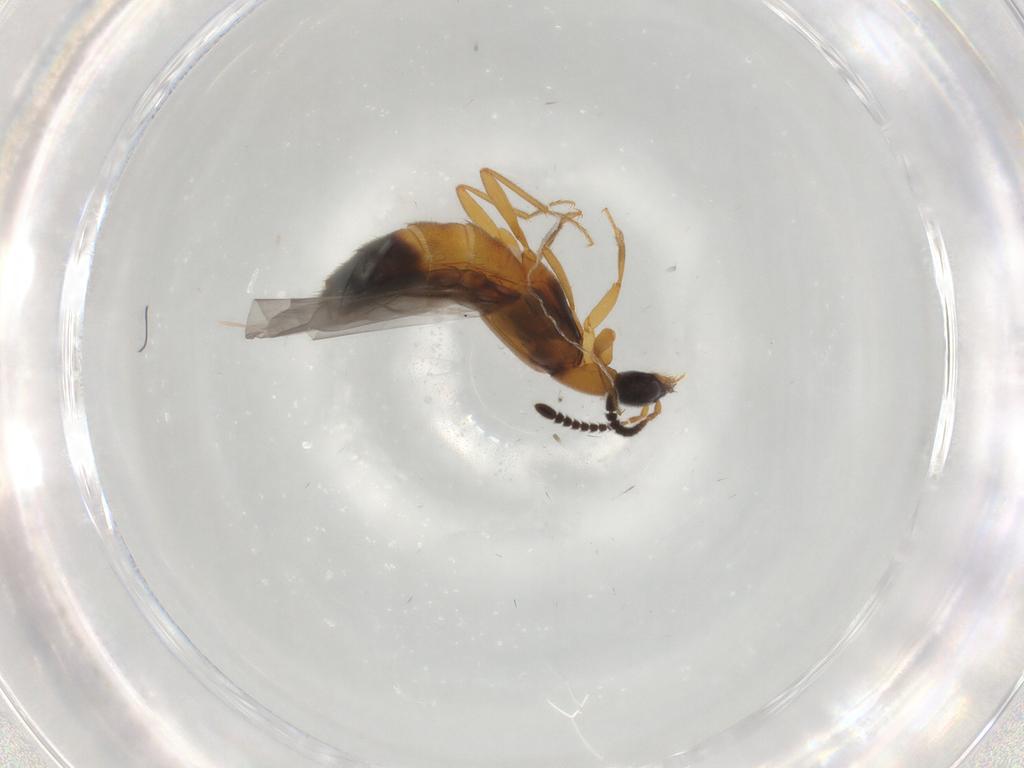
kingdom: Animalia
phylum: Arthropoda
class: Insecta
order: Coleoptera
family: Staphylinidae
